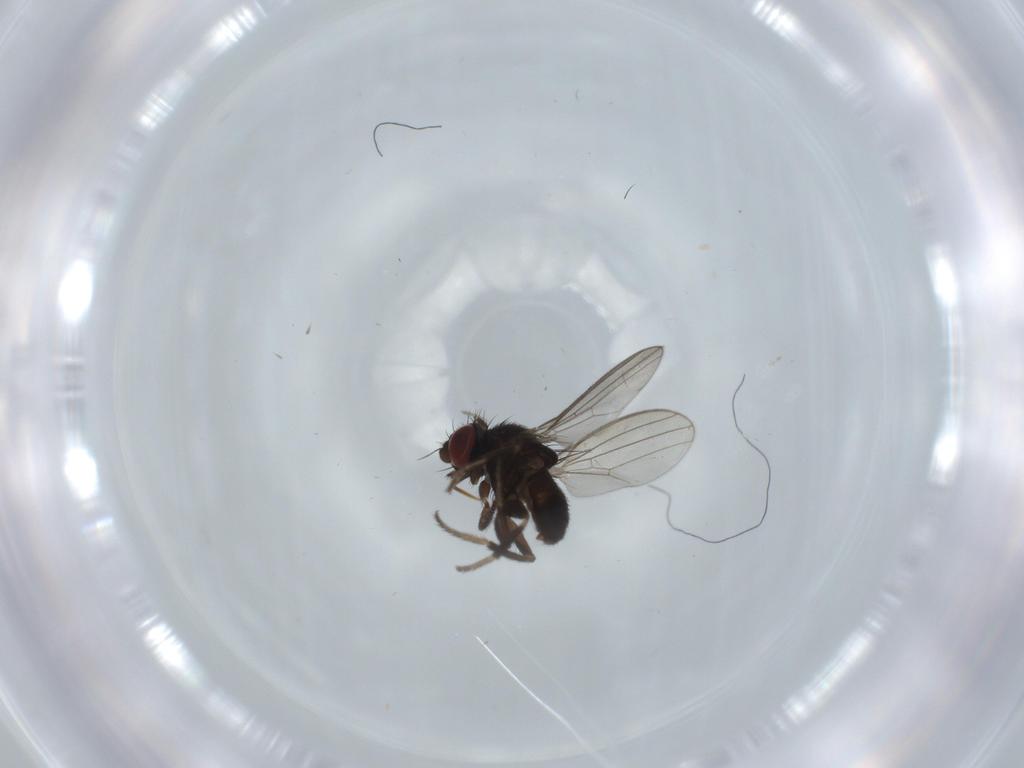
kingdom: Animalia
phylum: Arthropoda
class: Insecta
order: Diptera
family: Milichiidae
